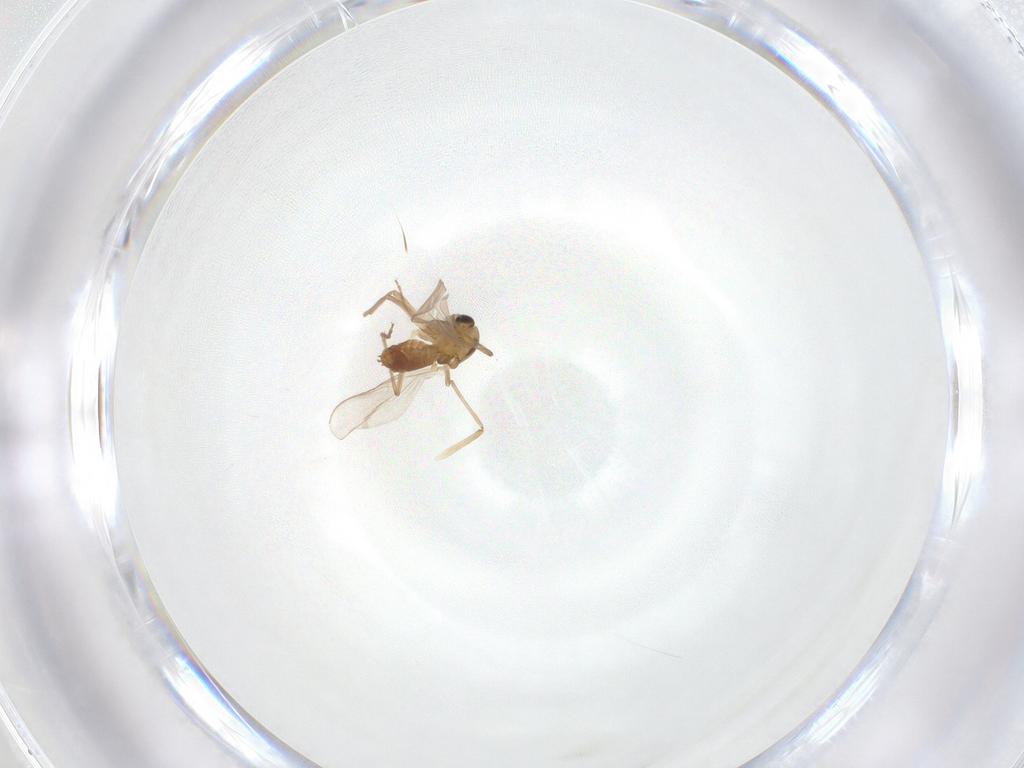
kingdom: Animalia
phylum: Arthropoda
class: Insecta
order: Diptera
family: Chironomidae
